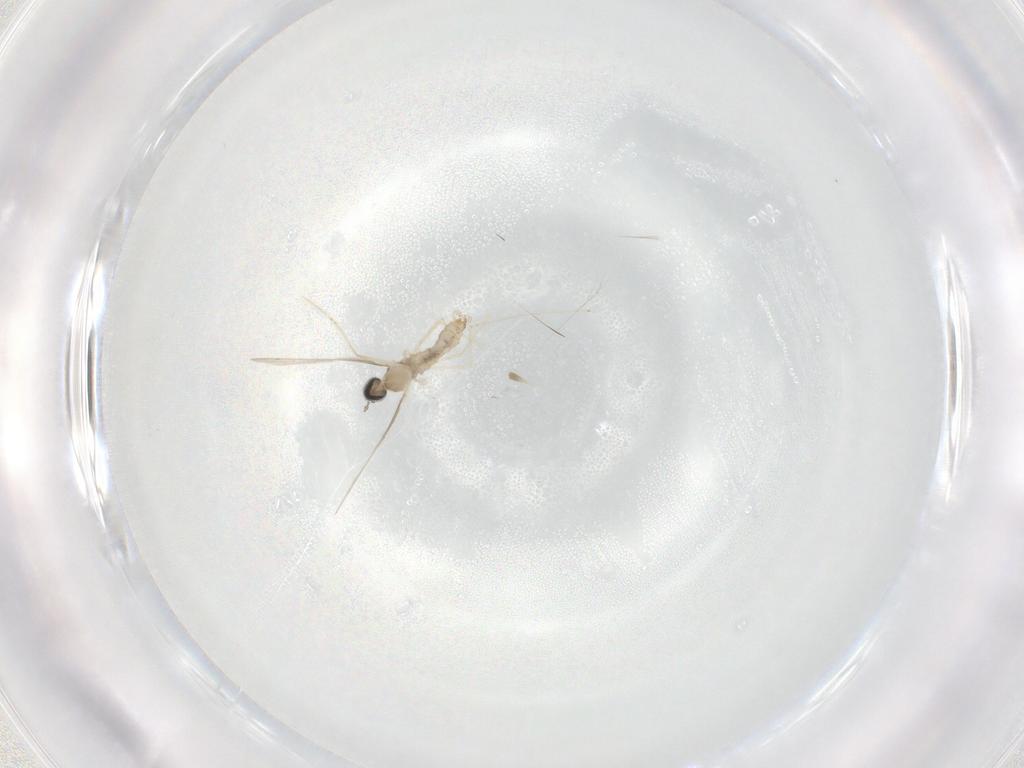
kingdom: Animalia
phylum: Arthropoda
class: Insecta
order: Diptera
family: Cecidomyiidae
